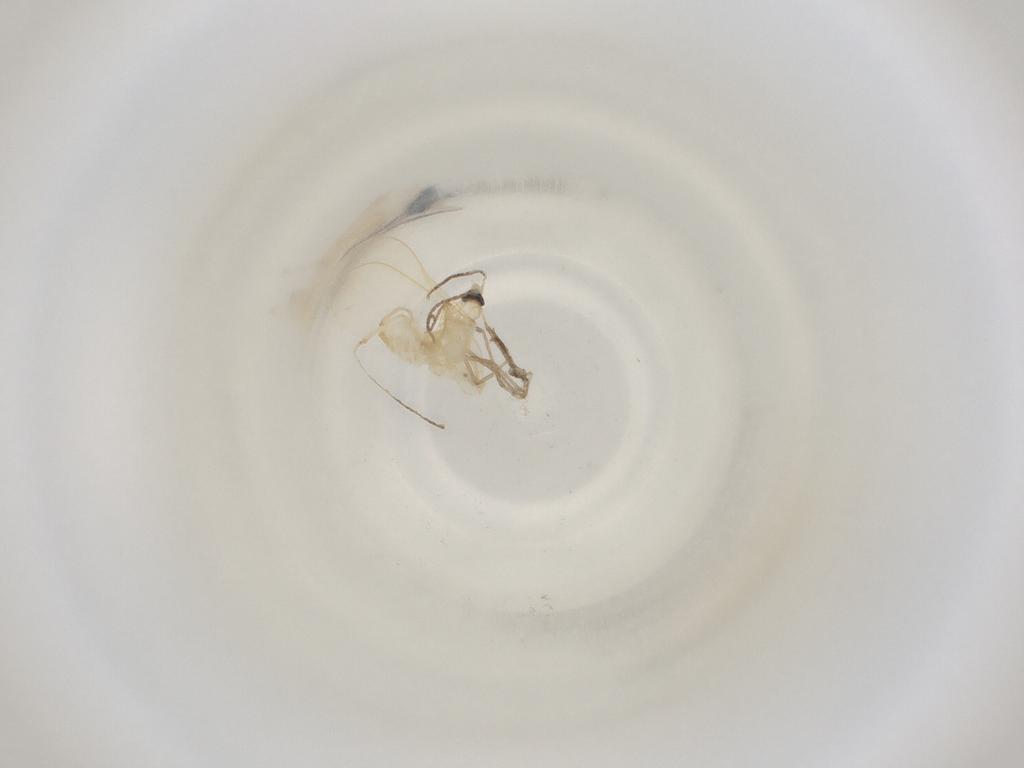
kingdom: Animalia
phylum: Arthropoda
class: Insecta
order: Diptera
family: Cecidomyiidae
